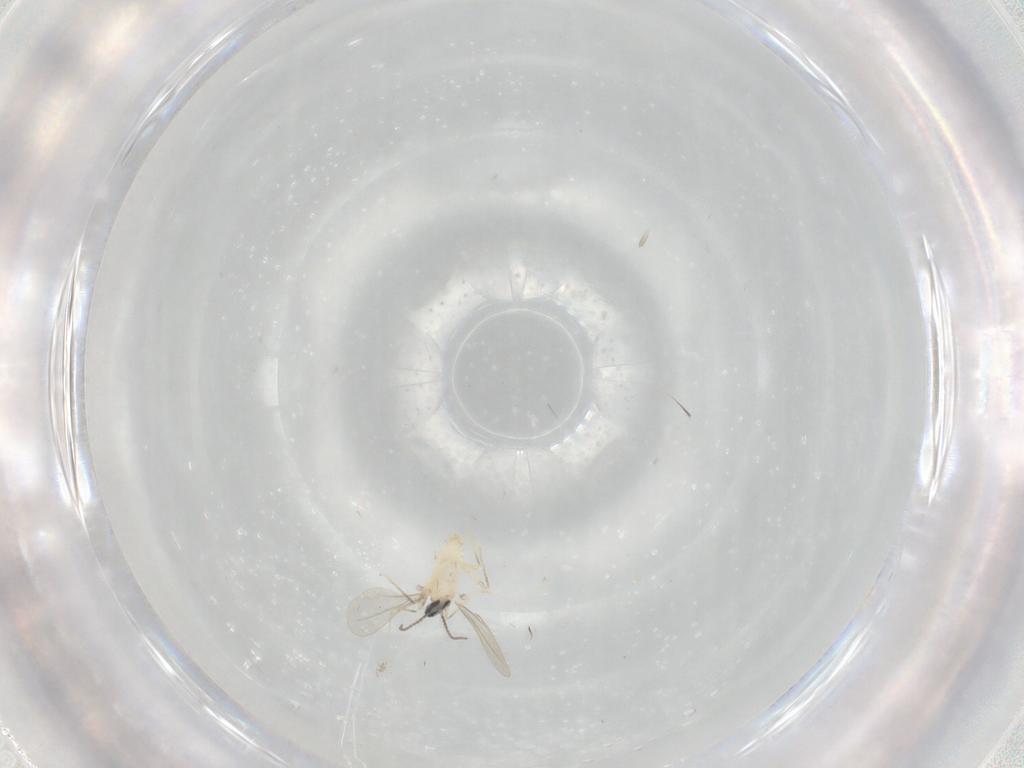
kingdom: Animalia
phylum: Arthropoda
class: Insecta
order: Diptera
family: Cecidomyiidae
